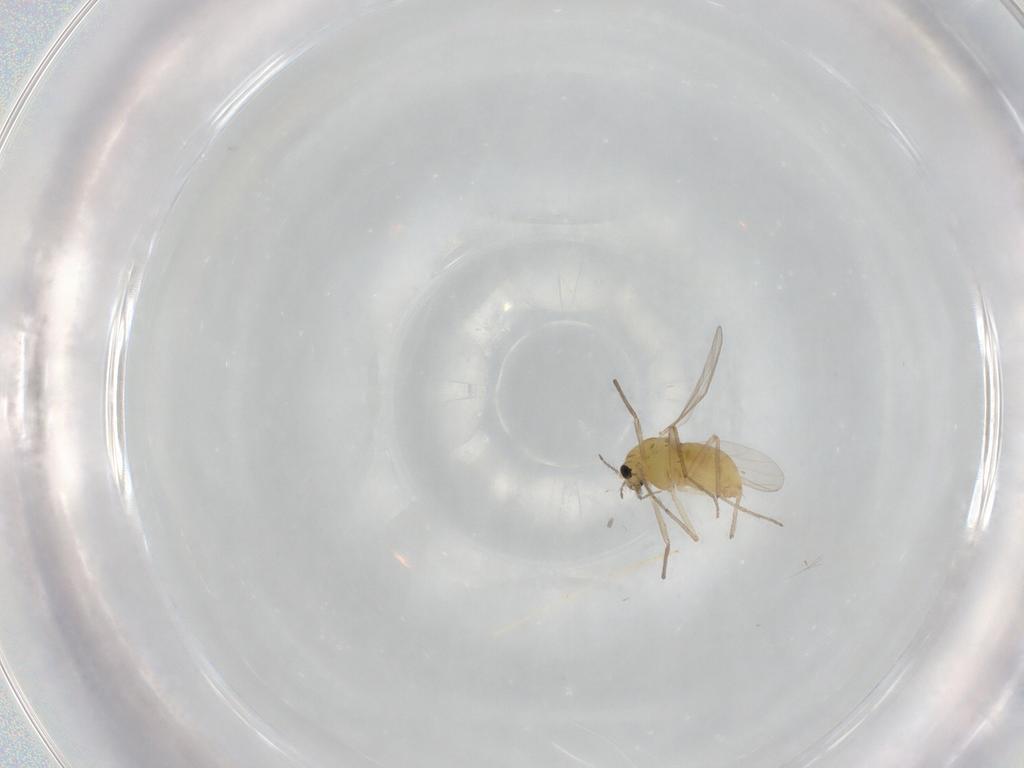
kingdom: Animalia
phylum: Arthropoda
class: Insecta
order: Diptera
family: Chironomidae
